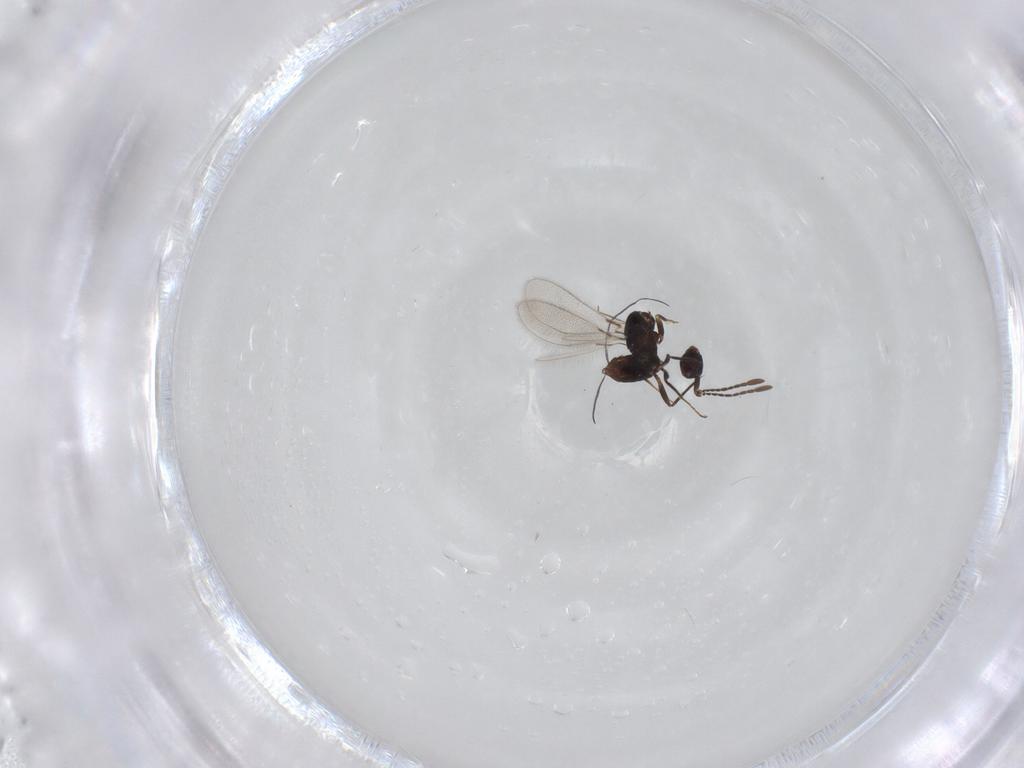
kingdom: Animalia
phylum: Arthropoda
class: Insecta
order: Hymenoptera
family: Mymaridae
